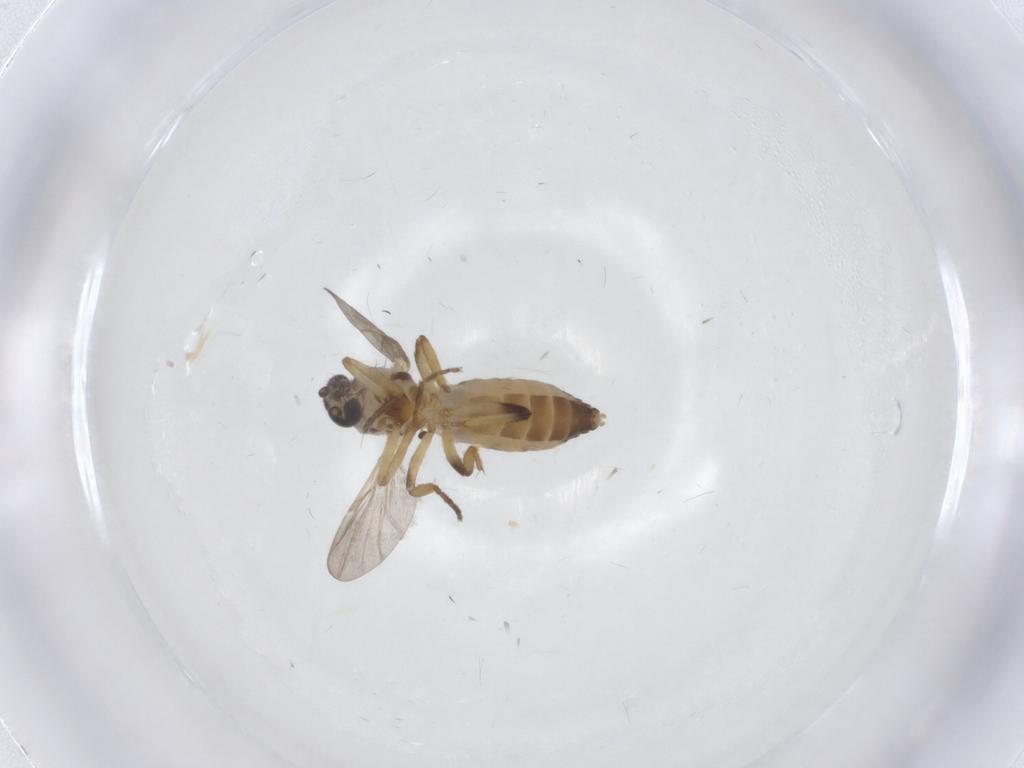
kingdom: Animalia
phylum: Arthropoda
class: Insecta
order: Diptera
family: Ceratopogonidae
